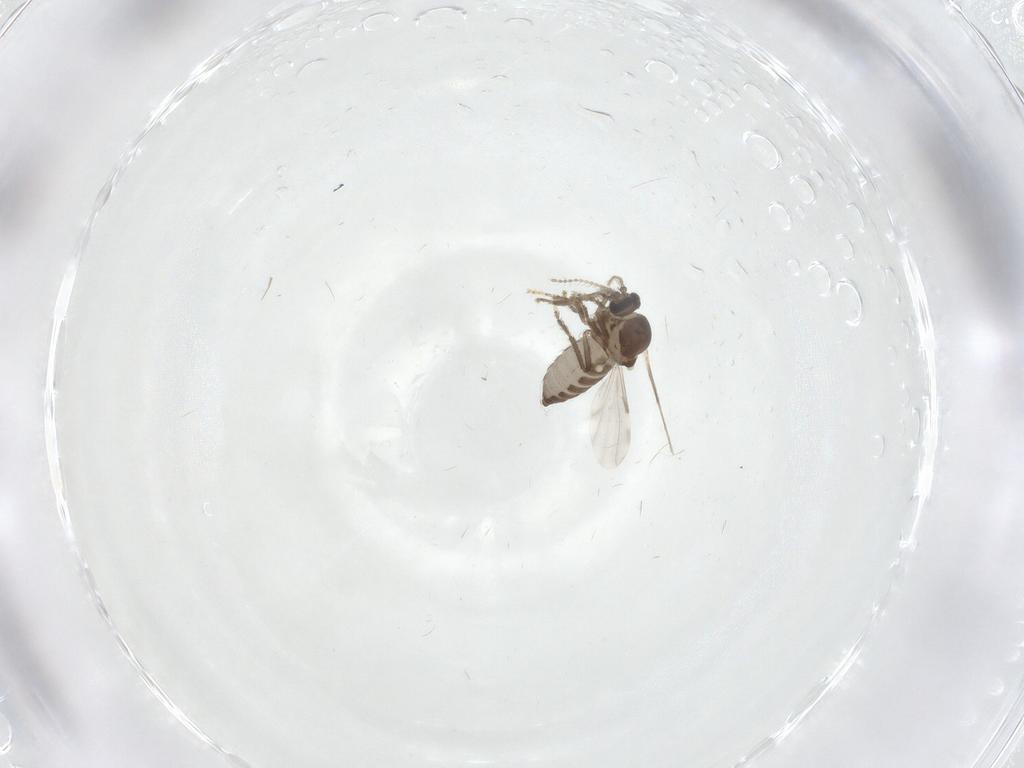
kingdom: Animalia
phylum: Arthropoda
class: Insecta
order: Diptera
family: Ceratopogonidae
